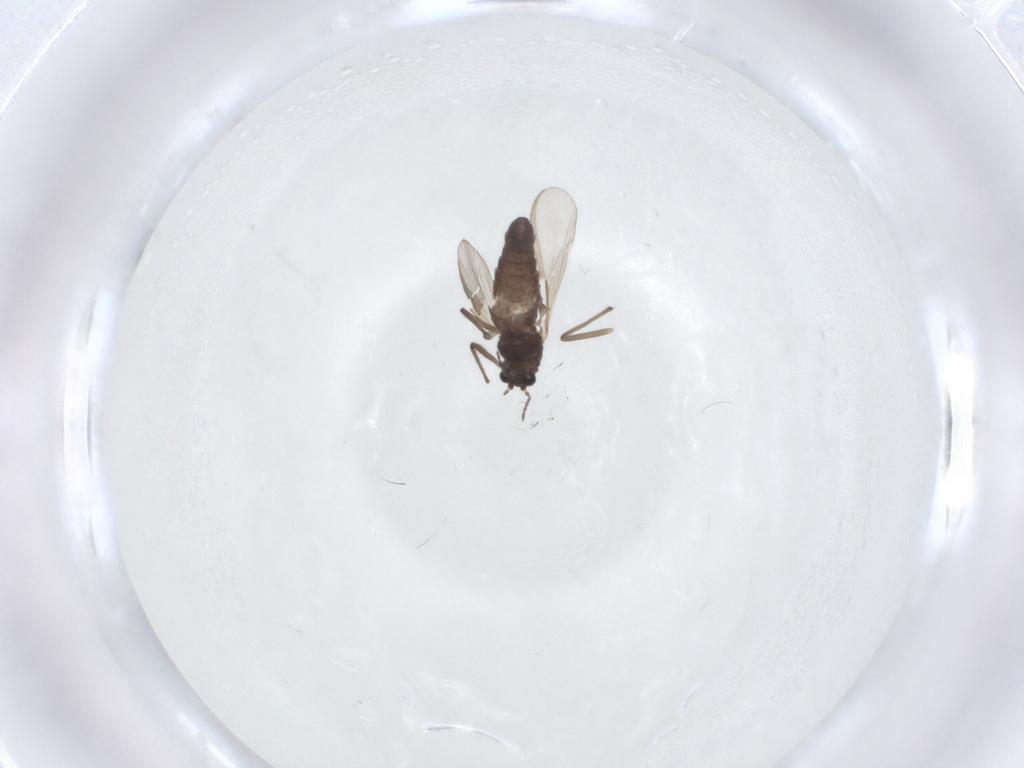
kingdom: Animalia
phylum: Arthropoda
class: Insecta
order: Diptera
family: Chironomidae
